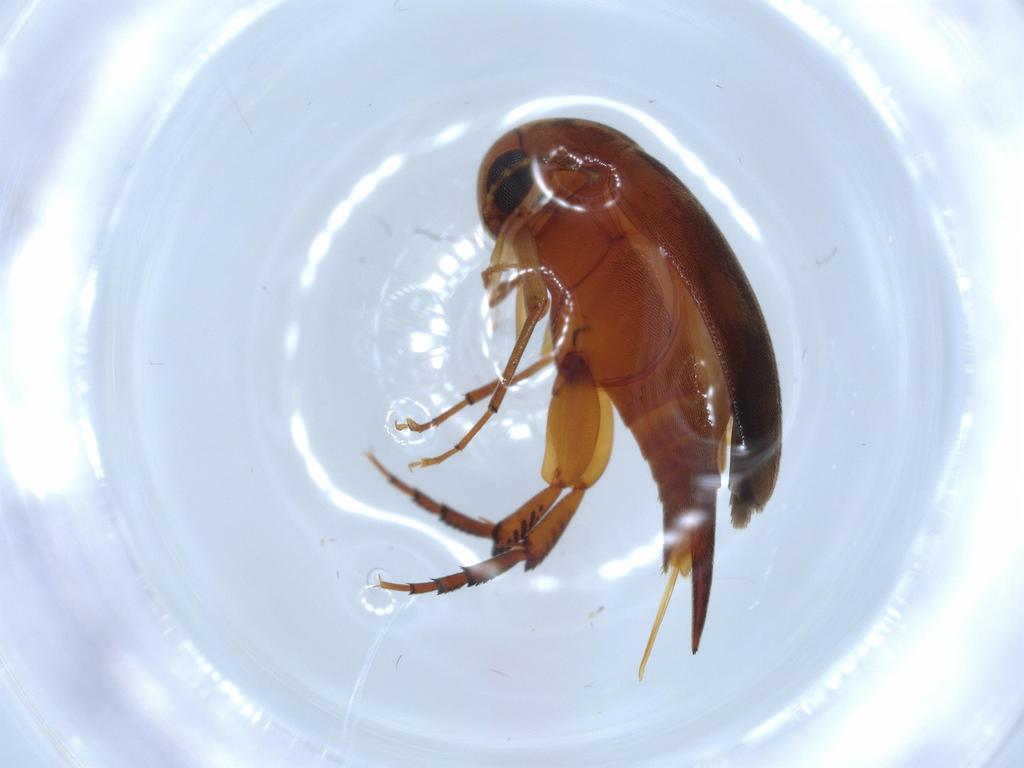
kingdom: Animalia
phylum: Arthropoda
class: Insecta
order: Coleoptera
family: Mordellidae
